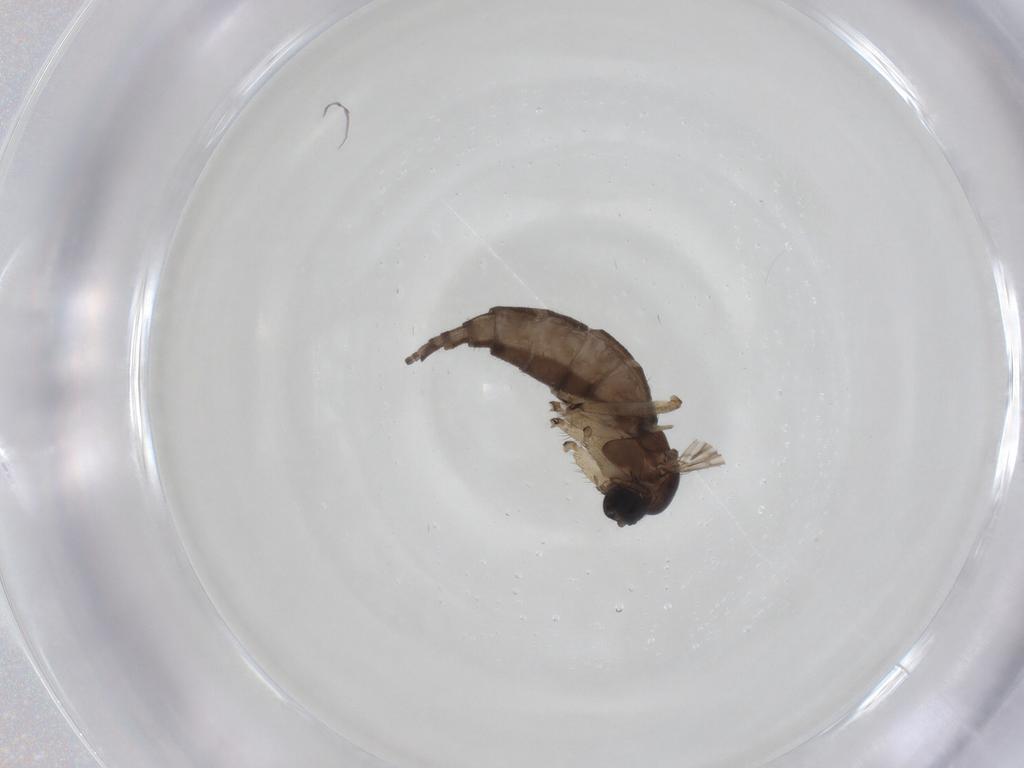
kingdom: Animalia
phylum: Arthropoda
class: Insecta
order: Diptera
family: Sciaridae
